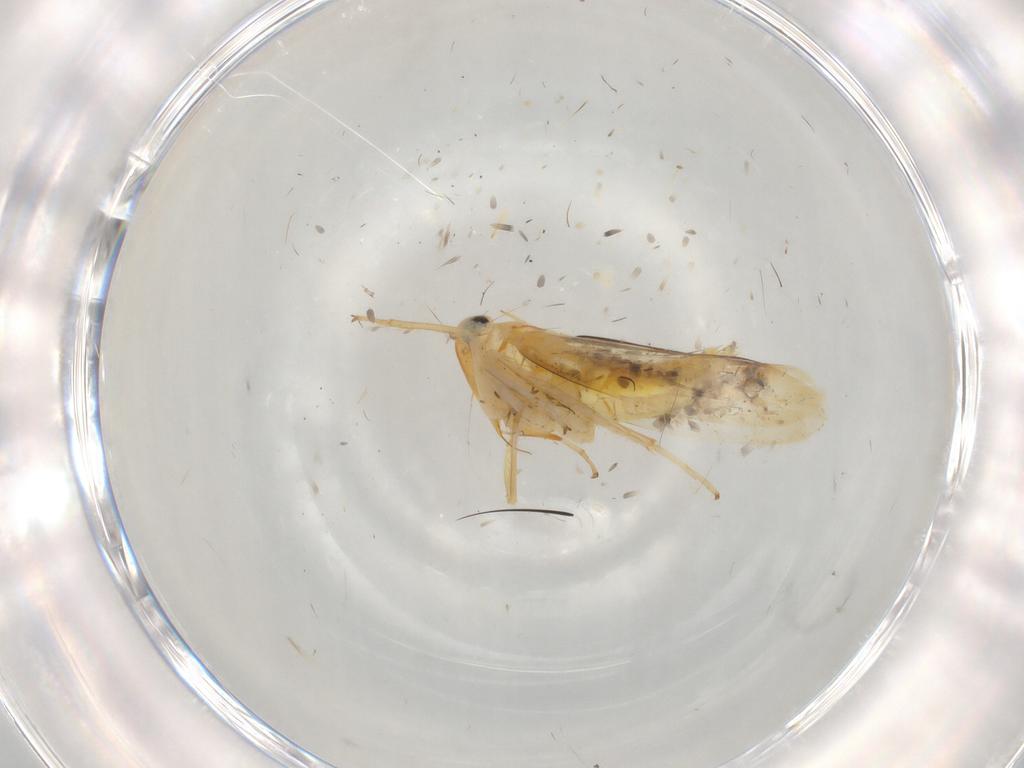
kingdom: Animalia
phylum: Arthropoda
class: Insecta
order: Hemiptera
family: Cicadellidae
